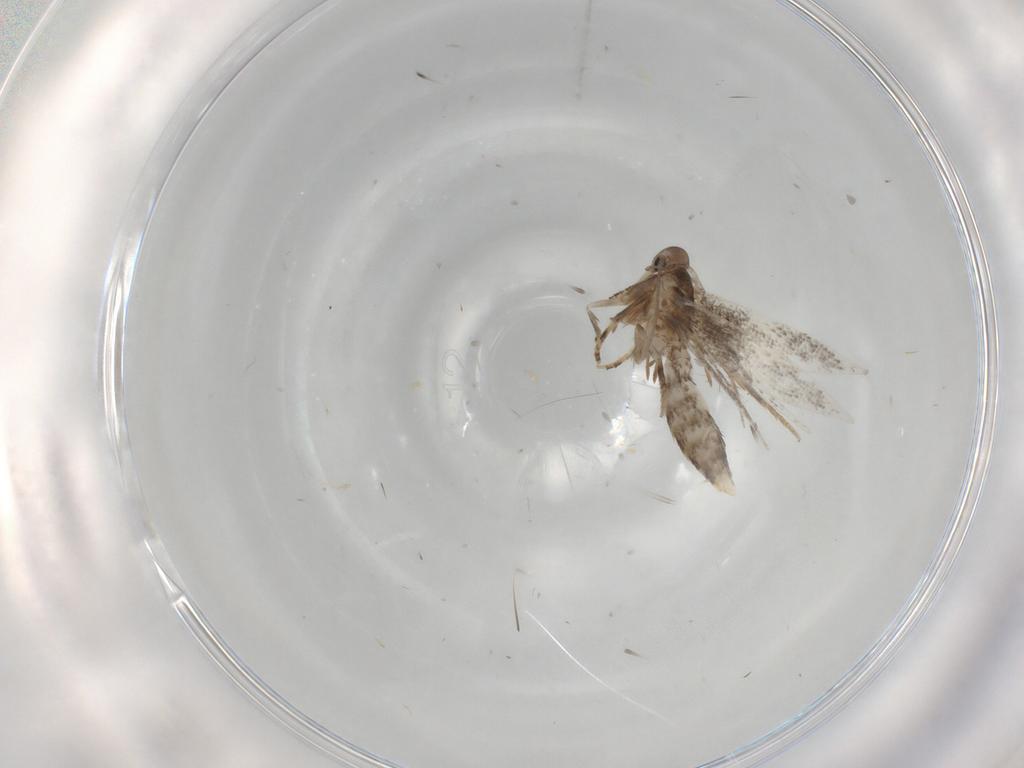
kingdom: Animalia
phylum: Arthropoda
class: Insecta
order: Lepidoptera
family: Elachistidae
